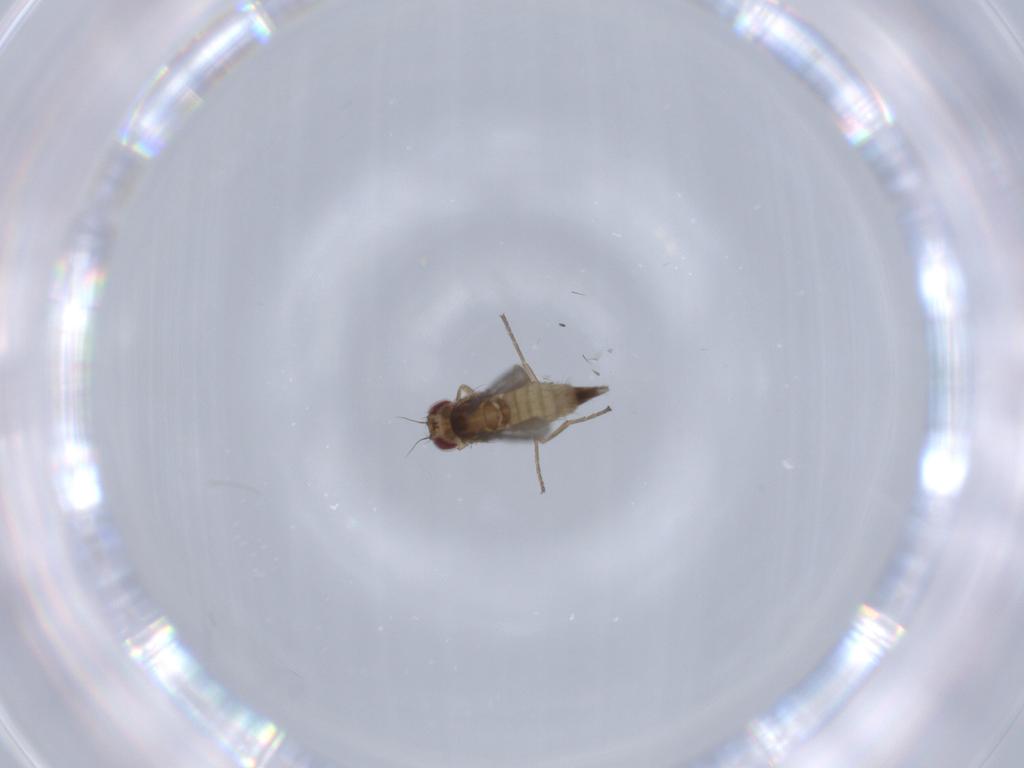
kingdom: Animalia
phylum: Arthropoda
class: Insecta
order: Diptera
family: Agromyzidae
